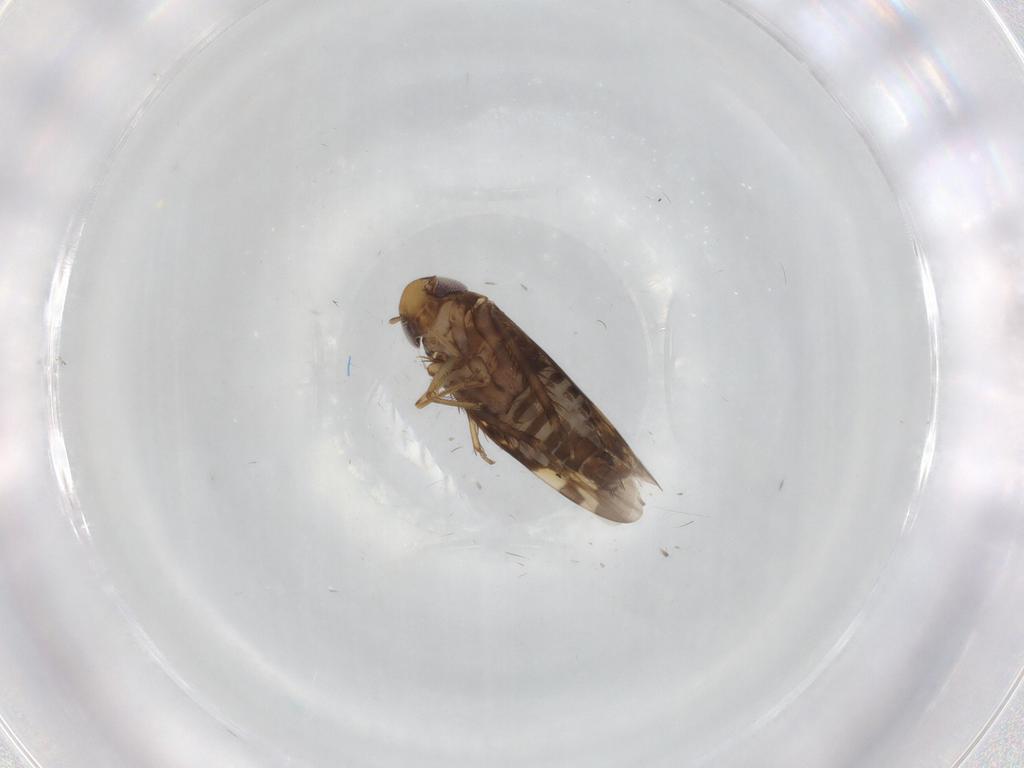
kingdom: Animalia
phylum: Arthropoda
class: Insecta
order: Hemiptera
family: Cicadellidae
